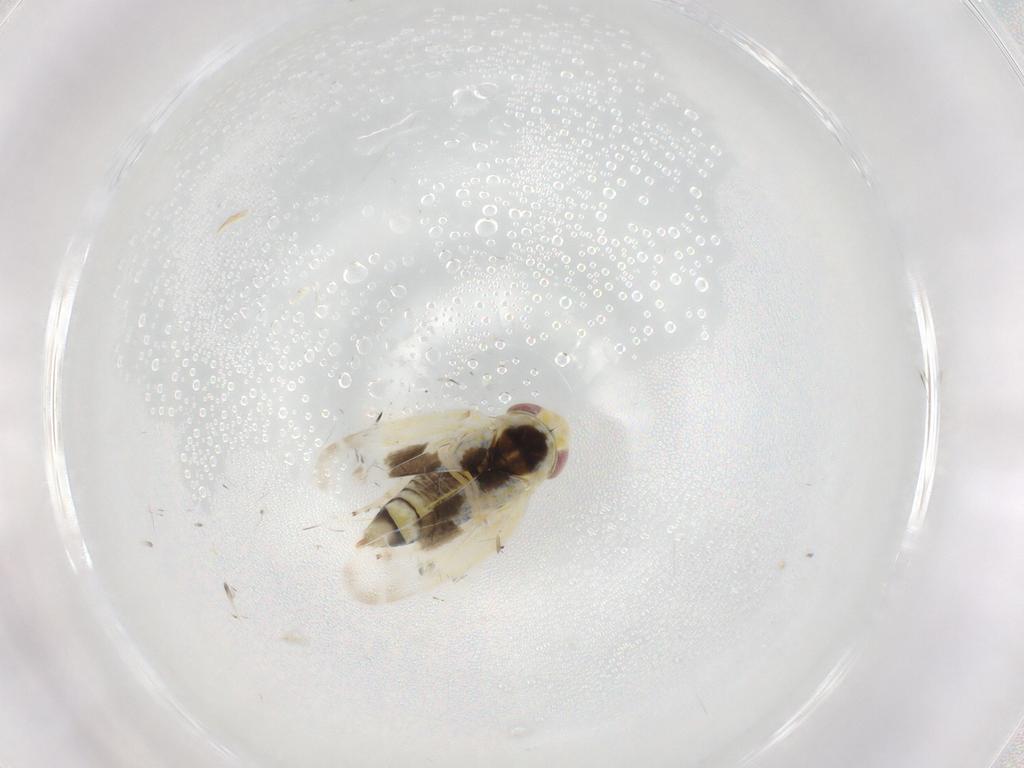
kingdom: Animalia
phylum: Arthropoda
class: Insecta
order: Hemiptera
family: Cicadellidae
